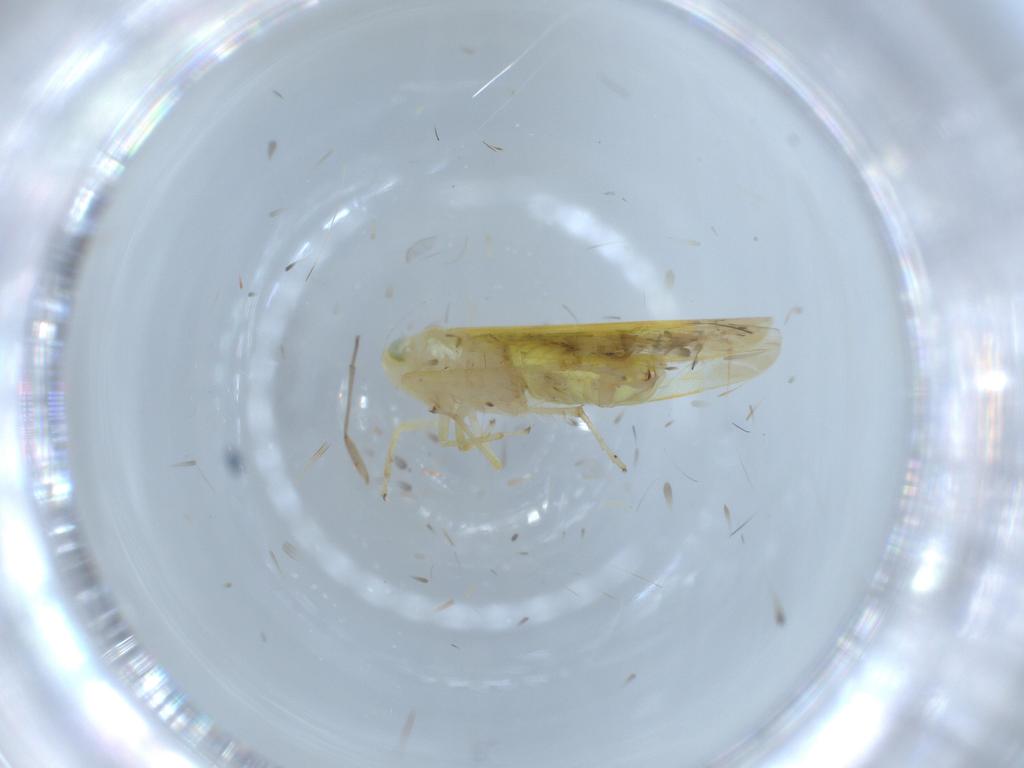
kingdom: Animalia
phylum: Arthropoda
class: Insecta
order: Hemiptera
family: Cicadellidae
